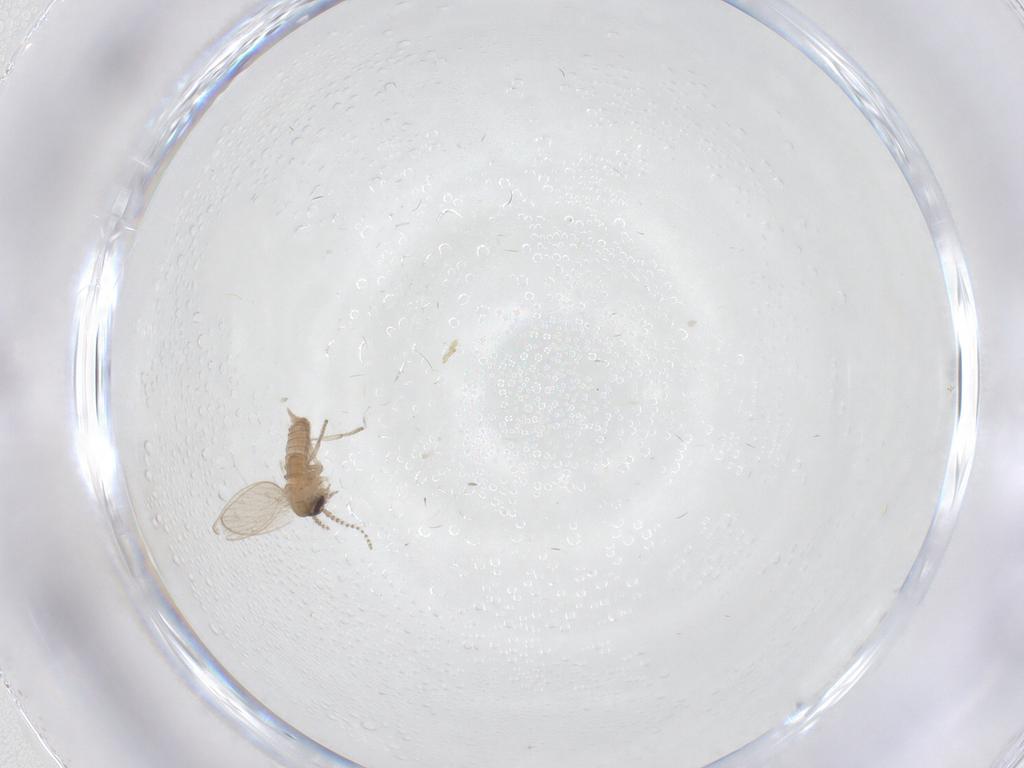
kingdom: Animalia
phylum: Arthropoda
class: Insecta
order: Diptera
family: Psychodidae
